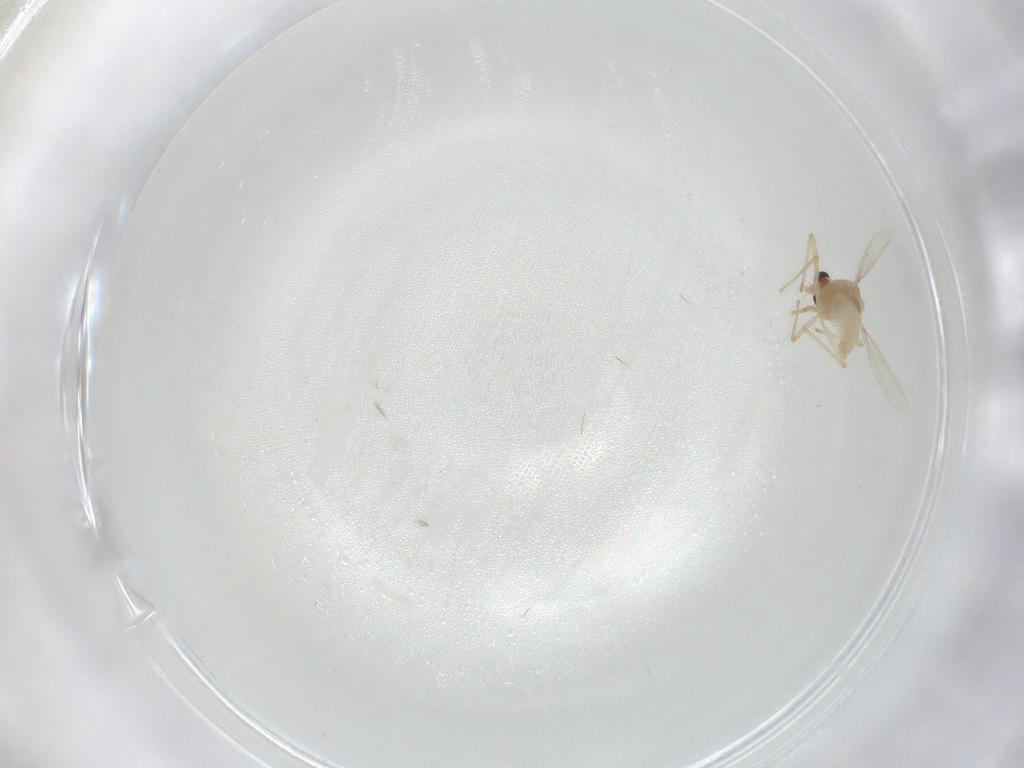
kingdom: Animalia
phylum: Arthropoda
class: Insecta
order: Diptera
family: Chironomidae
